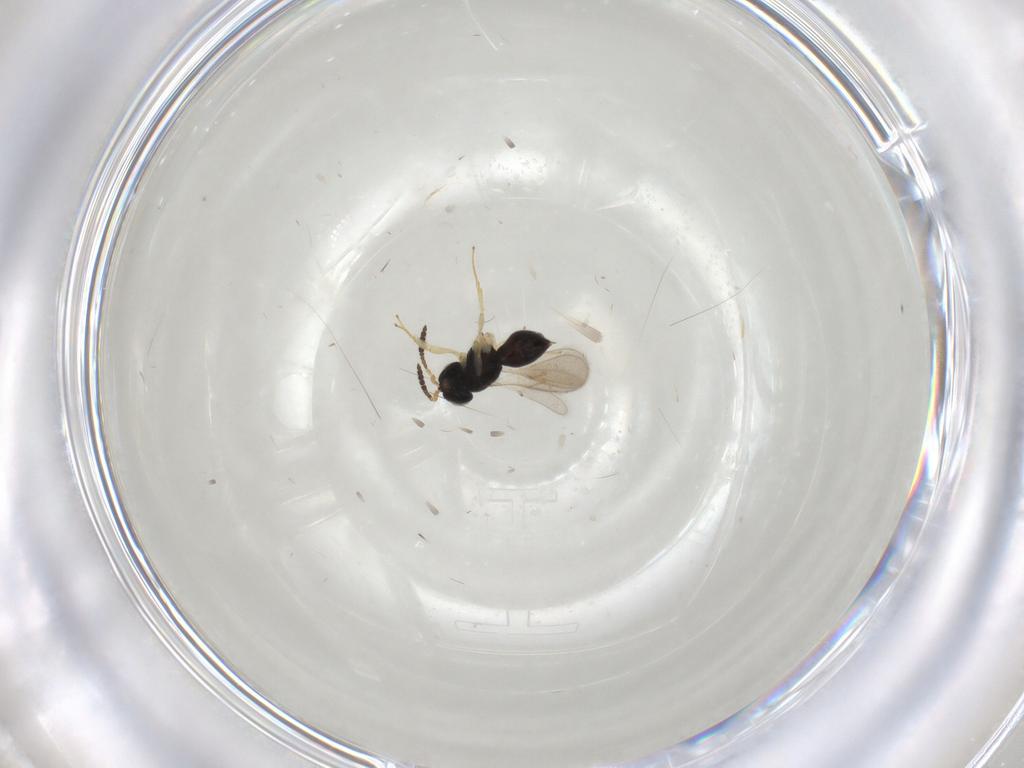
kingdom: Animalia
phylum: Arthropoda
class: Insecta
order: Hymenoptera
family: Scelionidae
